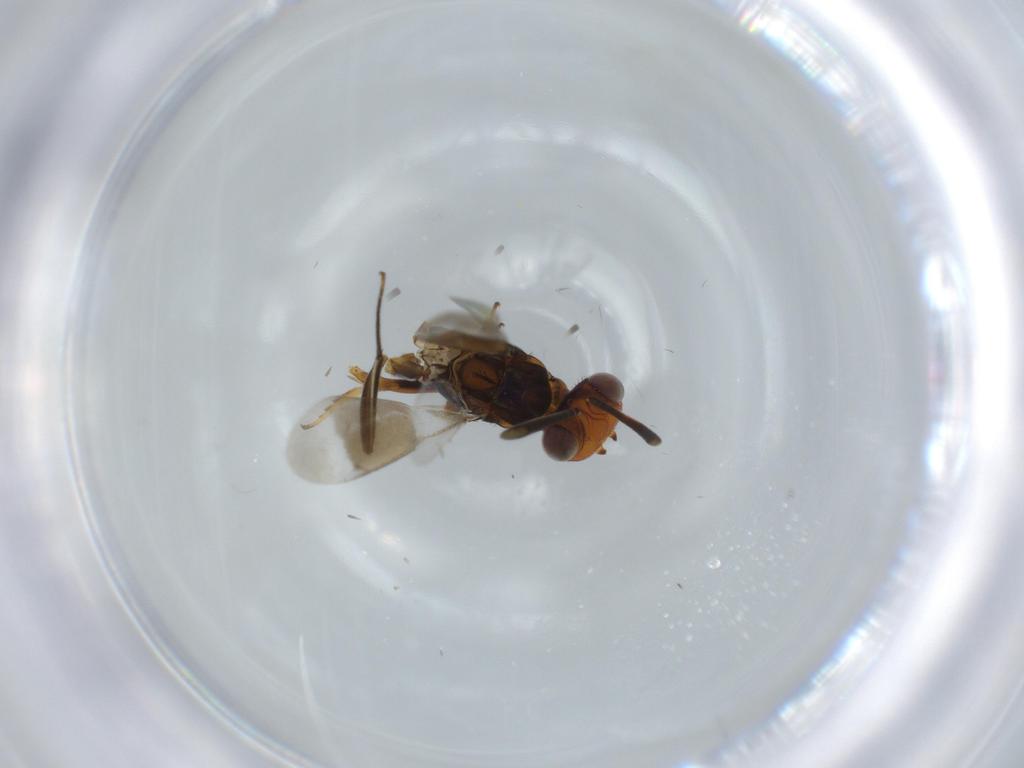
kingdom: Animalia
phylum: Arthropoda
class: Insecta
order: Hymenoptera
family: Eupelmidae
